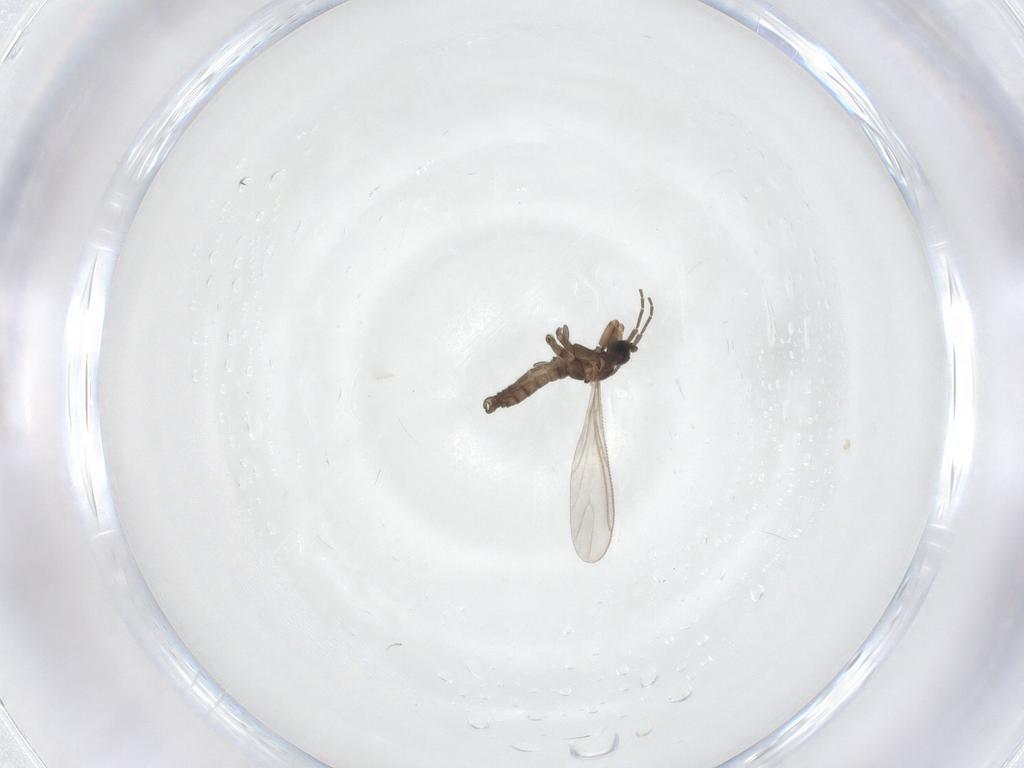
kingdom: Animalia
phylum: Arthropoda
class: Insecta
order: Diptera
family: Sciaridae
